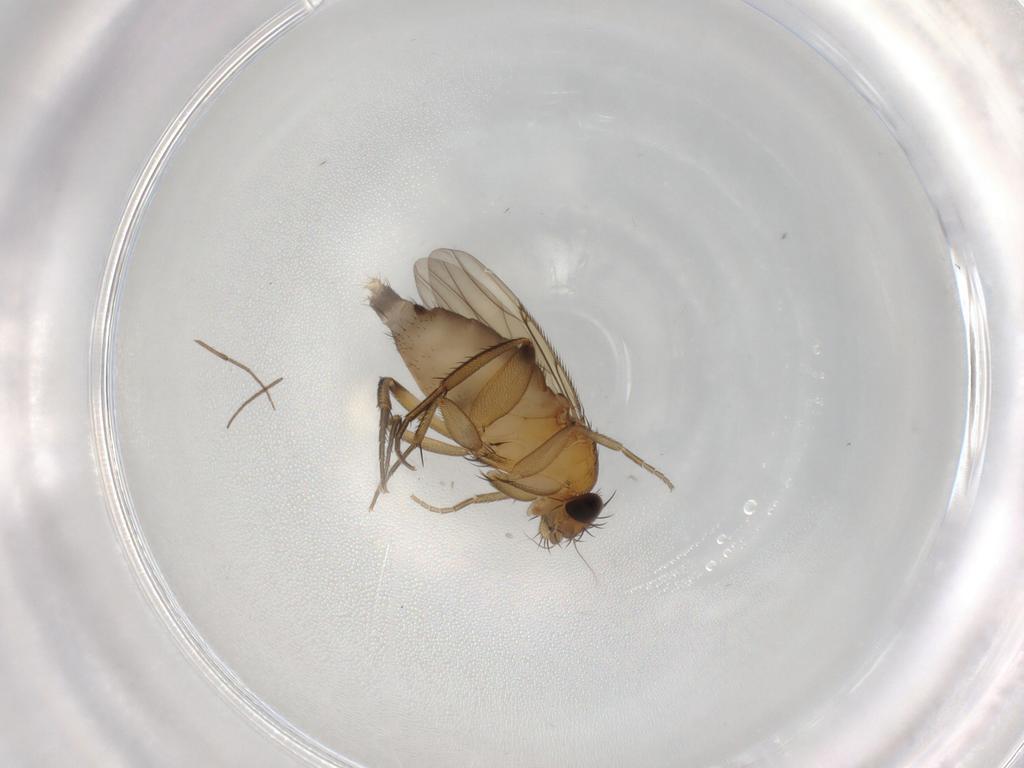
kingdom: Animalia
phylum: Arthropoda
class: Insecta
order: Diptera
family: Phoridae
